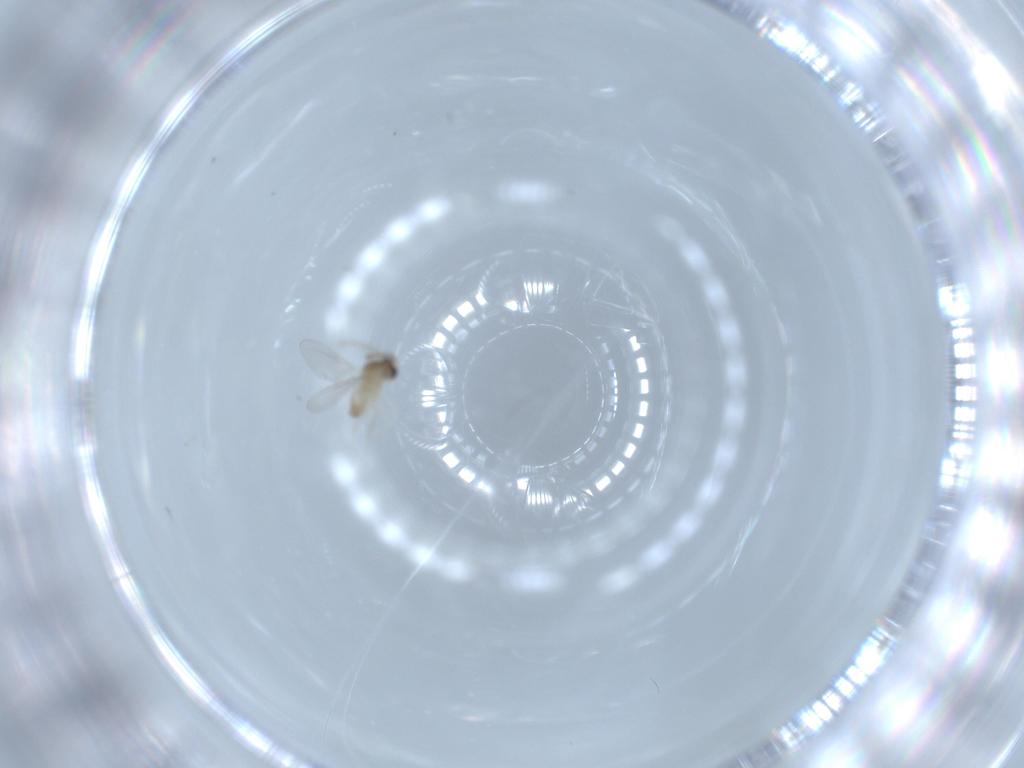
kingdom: Animalia
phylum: Arthropoda
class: Insecta
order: Diptera
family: Cecidomyiidae
